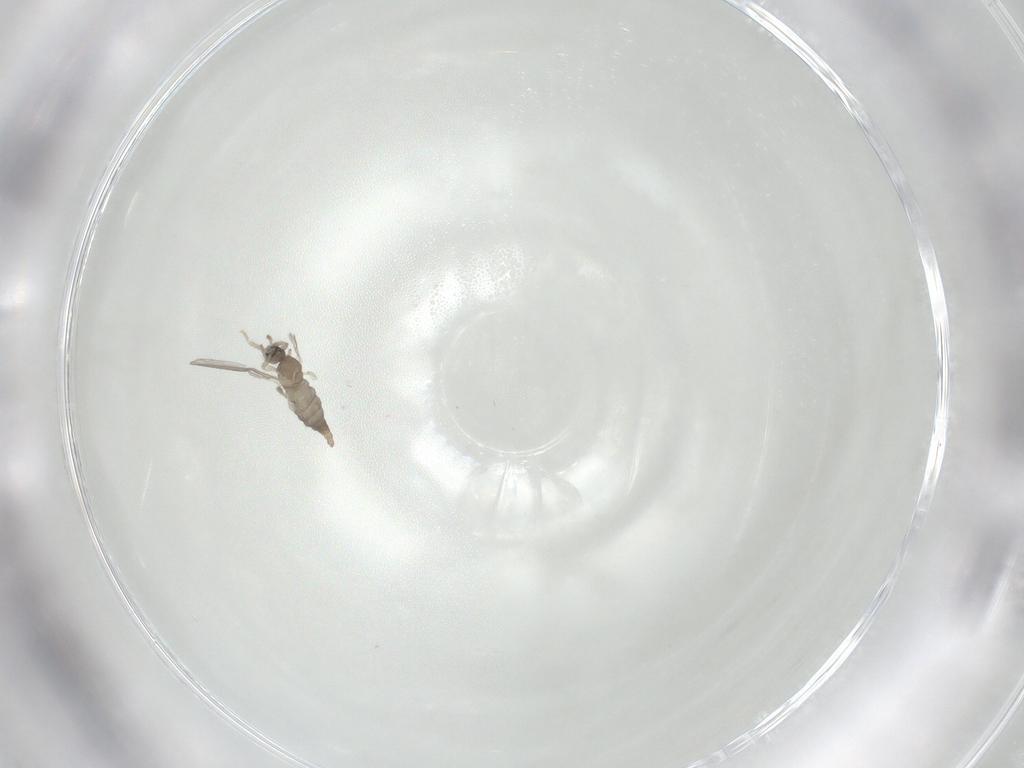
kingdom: Animalia
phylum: Arthropoda
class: Insecta
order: Diptera
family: Cecidomyiidae
